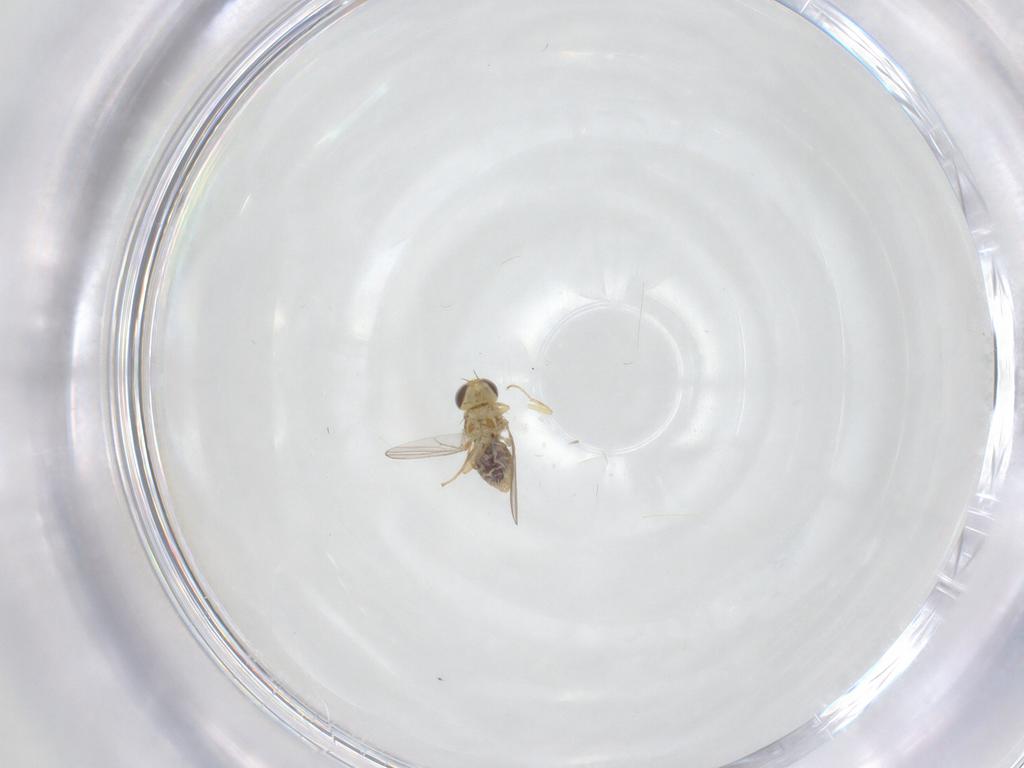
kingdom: Animalia
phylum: Arthropoda
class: Insecta
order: Diptera
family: Chyromyidae
